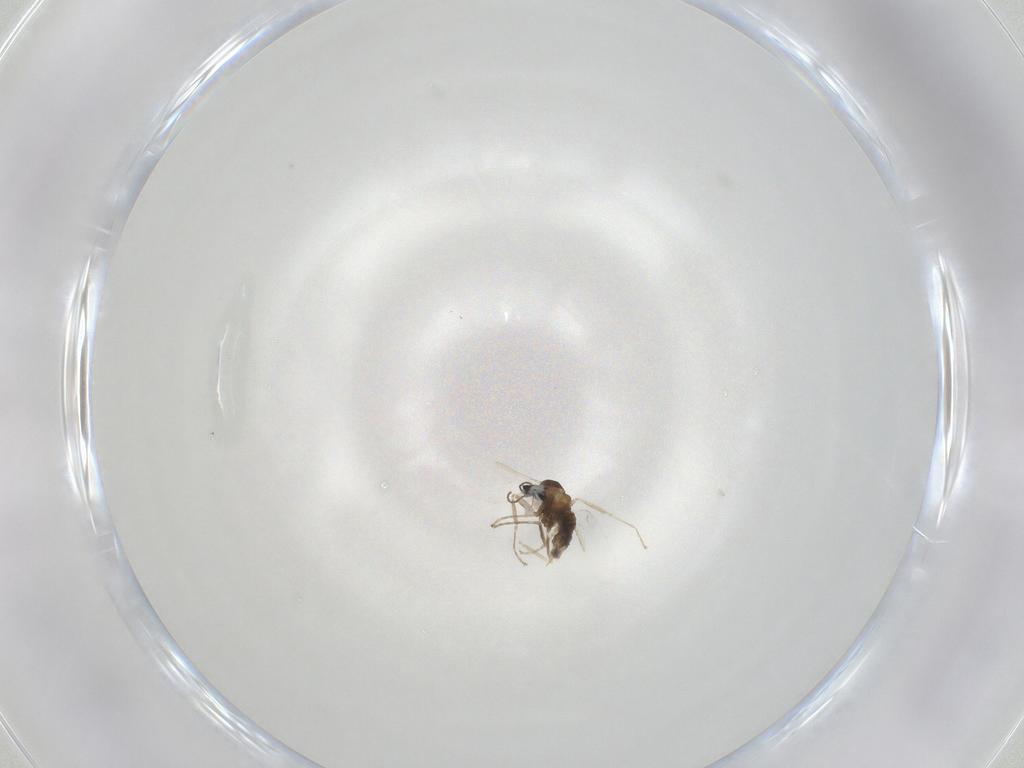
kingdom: Animalia
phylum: Arthropoda
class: Insecta
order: Diptera
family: Cecidomyiidae
